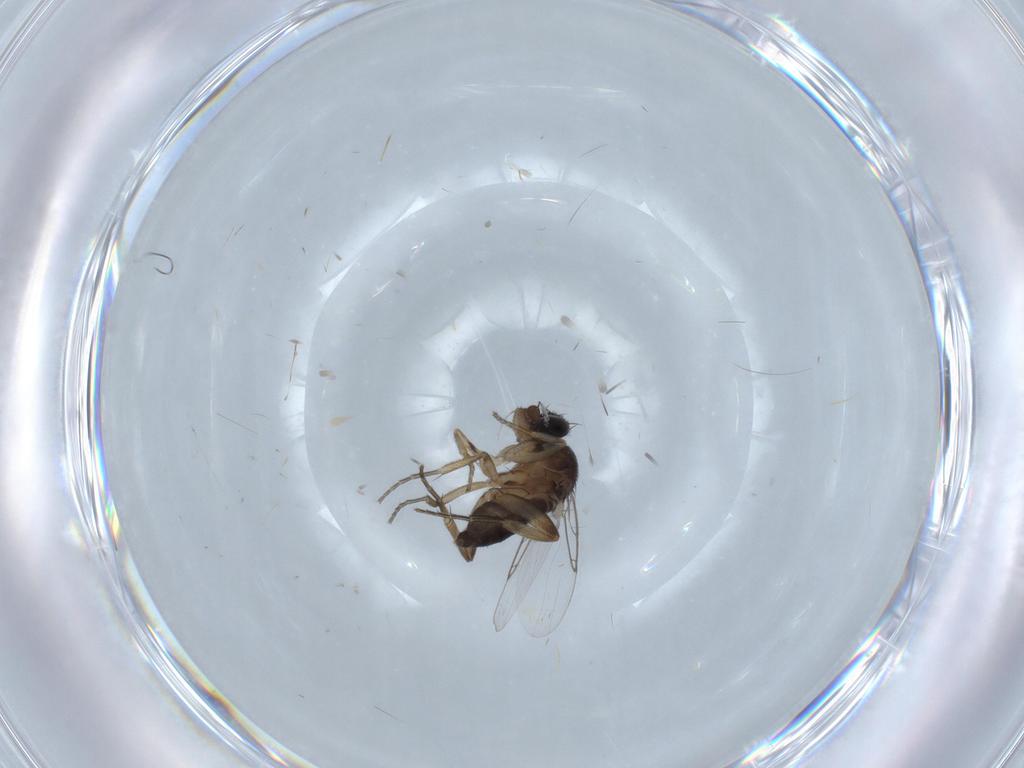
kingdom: Animalia
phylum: Arthropoda
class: Insecta
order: Diptera
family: Phoridae
